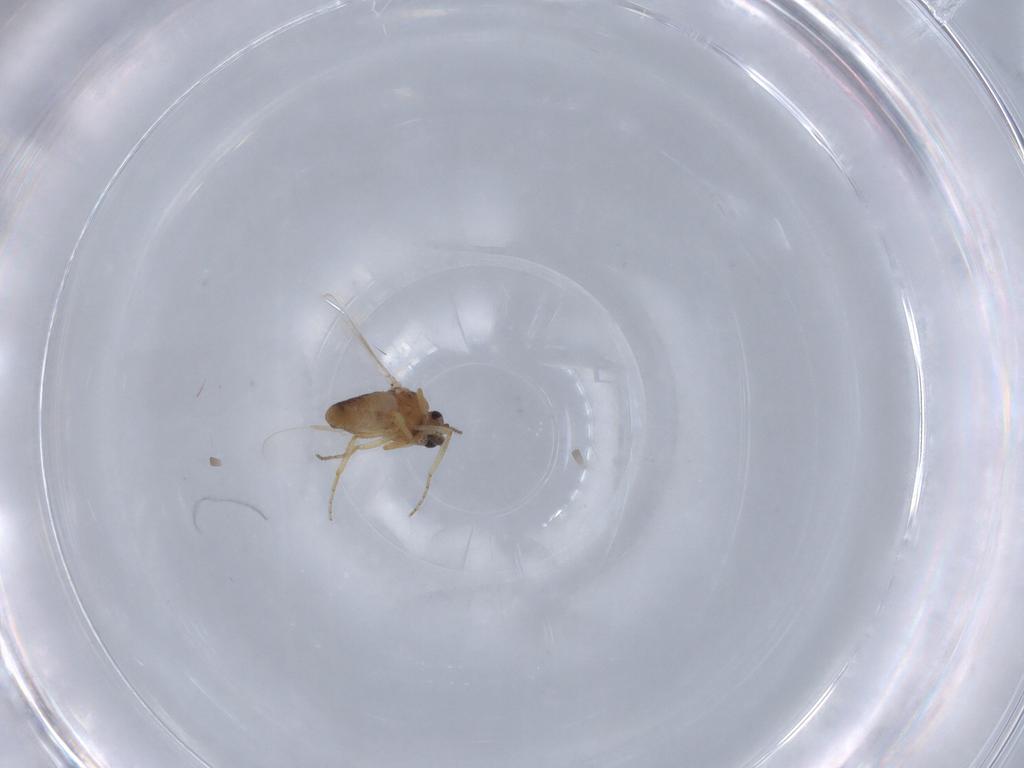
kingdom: Animalia
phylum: Arthropoda
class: Insecta
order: Diptera
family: Ceratopogonidae
